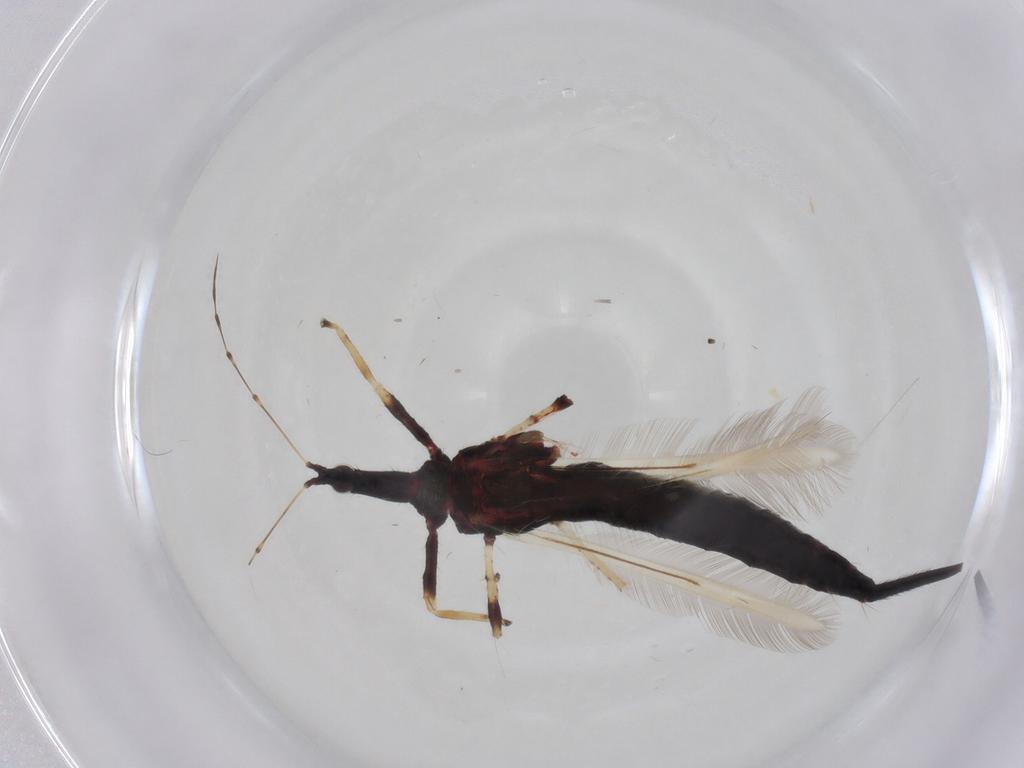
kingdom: Animalia
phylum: Arthropoda
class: Insecta
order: Thysanoptera
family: Phlaeothripidae
